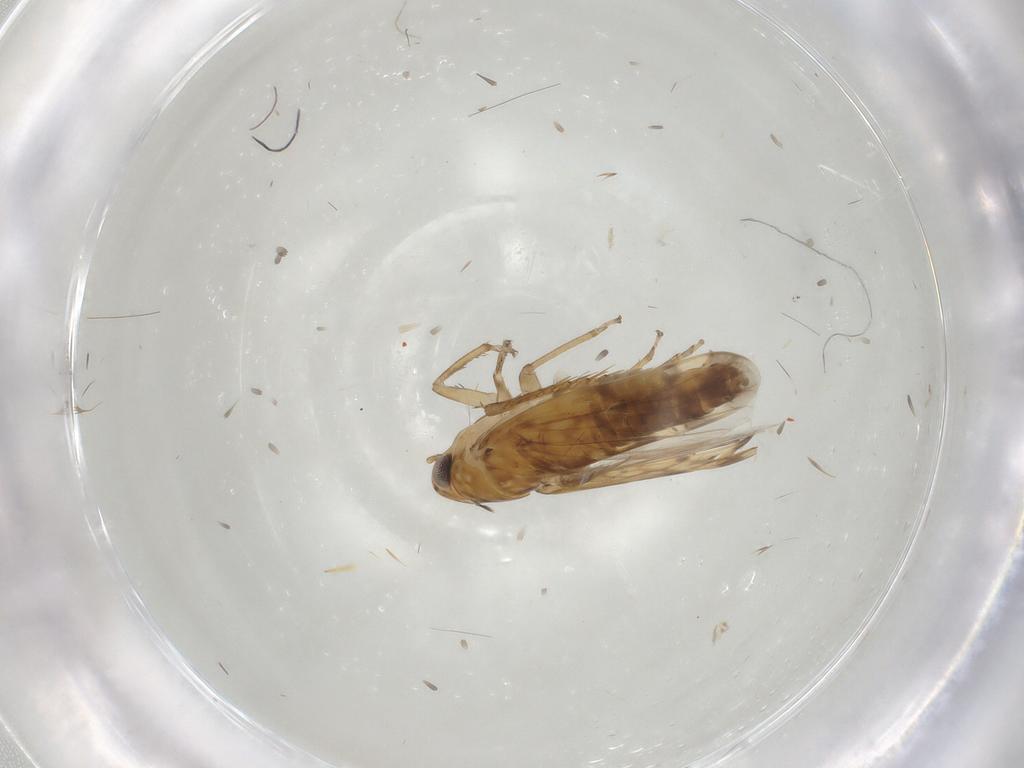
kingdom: Animalia
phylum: Arthropoda
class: Insecta
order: Hemiptera
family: Cicadellidae
